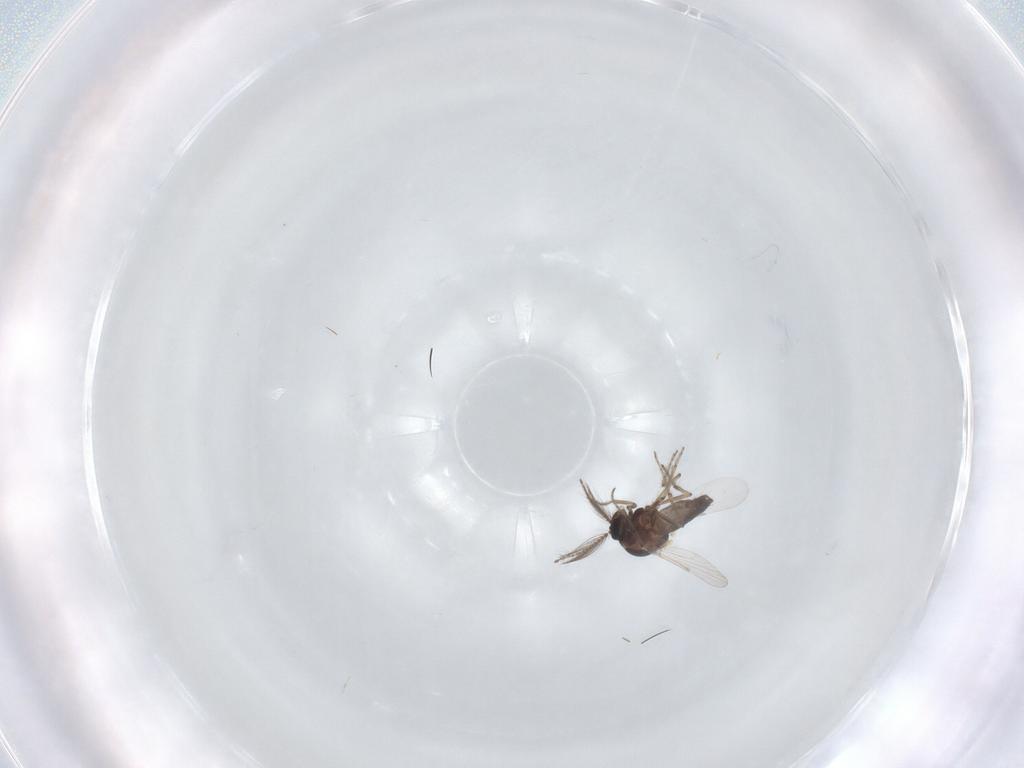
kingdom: Animalia
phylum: Arthropoda
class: Insecta
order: Diptera
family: Ceratopogonidae
